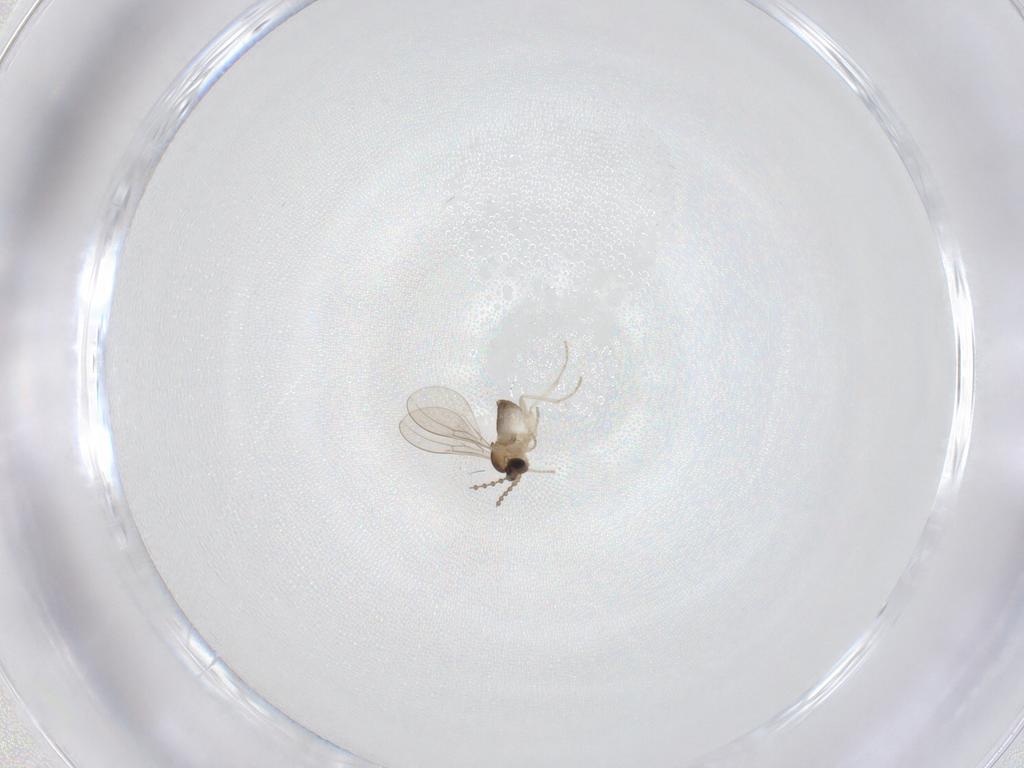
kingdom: Animalia
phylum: Arthropoda
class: Insecta
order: Diptera
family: Cecidomyiidae
